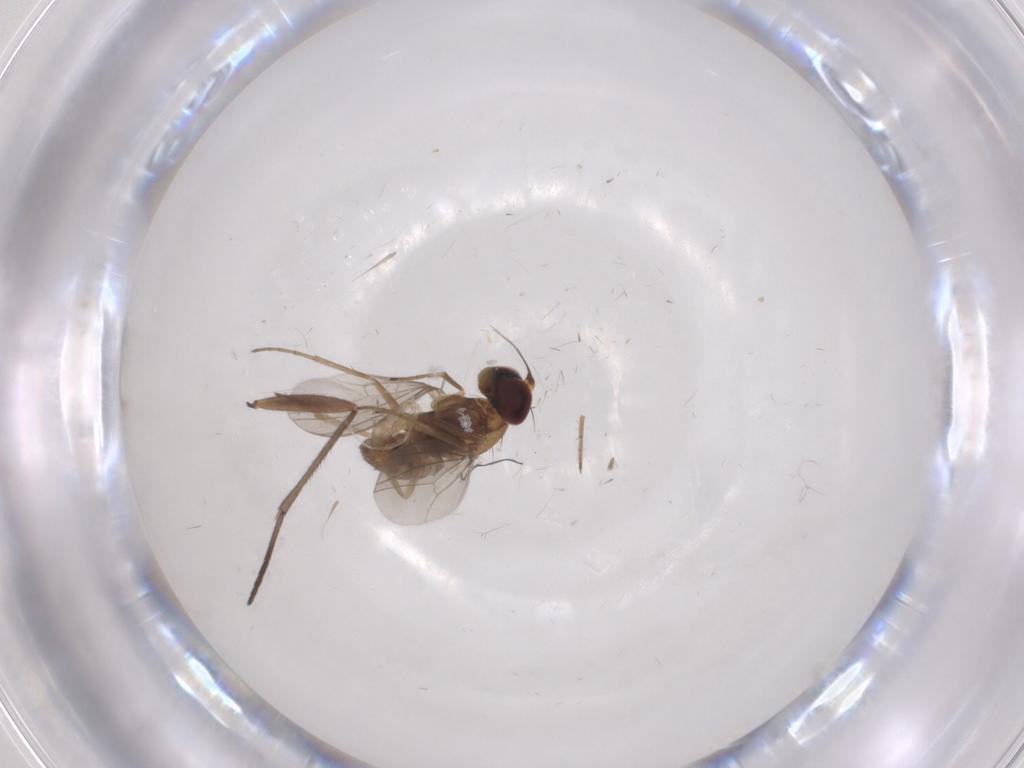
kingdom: Animalia
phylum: Arthropoda
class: Insecta
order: Diptera
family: Dolichopodidae
